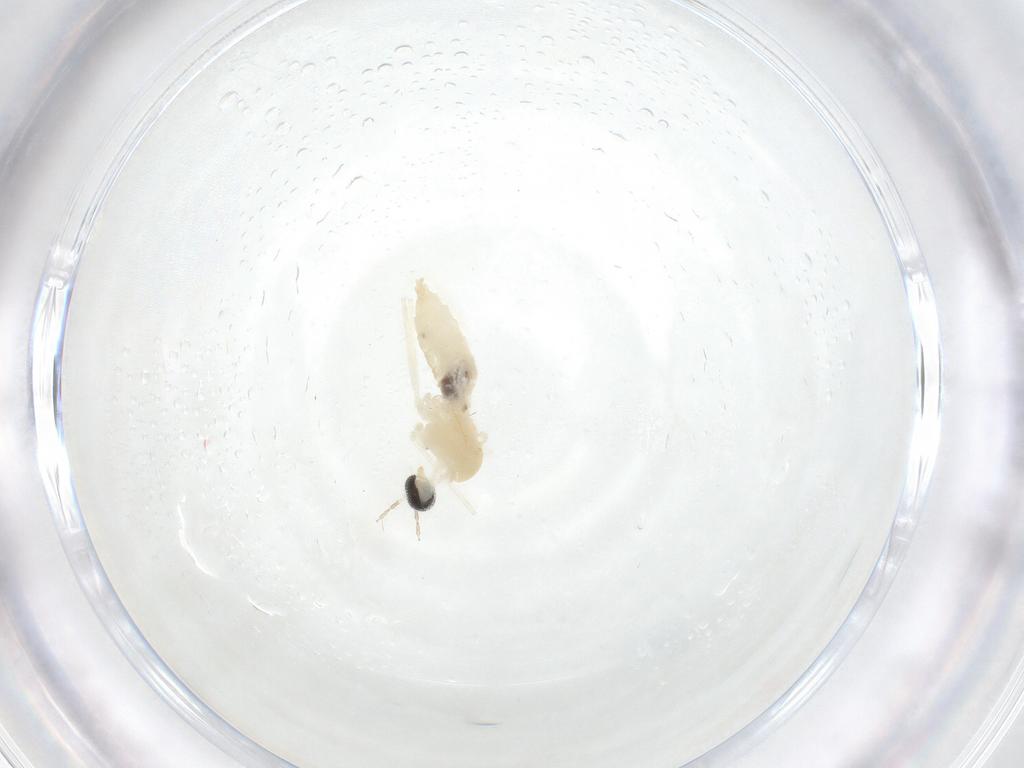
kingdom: Animalia
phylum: Arthropoda
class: Insecta
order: Diptera
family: Cecidomyiidae
